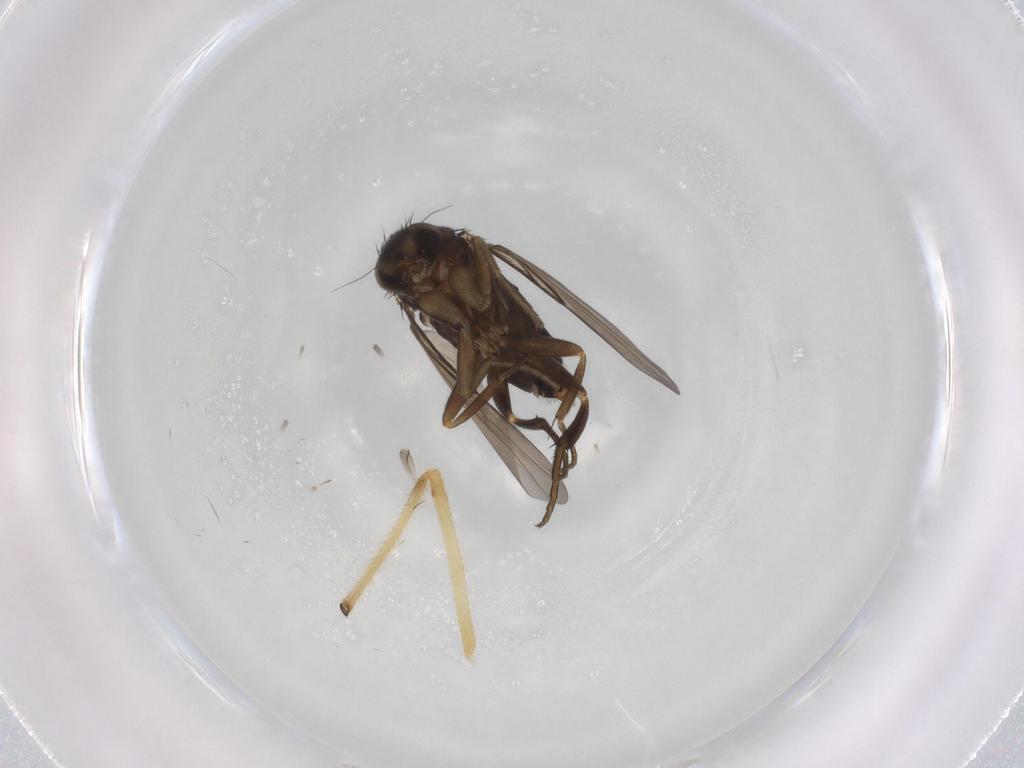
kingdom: Animalia
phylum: Arthropoda
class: Insecta
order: Diptera
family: Phoridae
